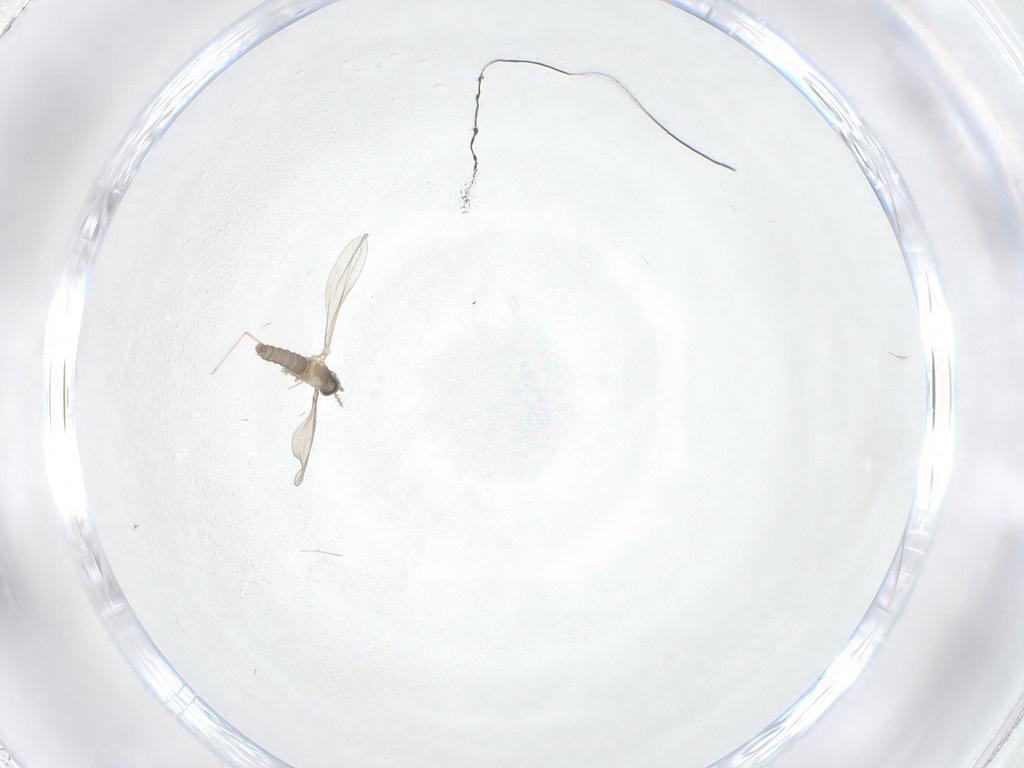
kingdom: Animalia
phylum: Arthropoda
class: Insecta
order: Diptera
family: Cecidomyiidae
